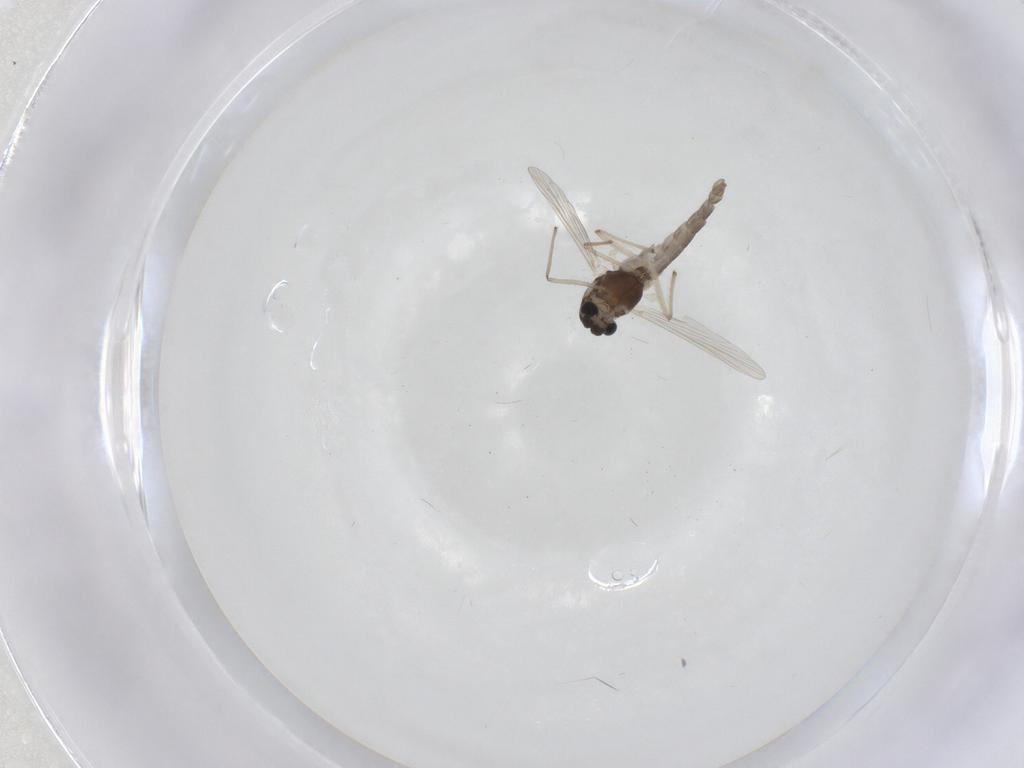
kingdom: Animalia
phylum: Arthropoda
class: Insecta
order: Diptera
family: Chironomidae
